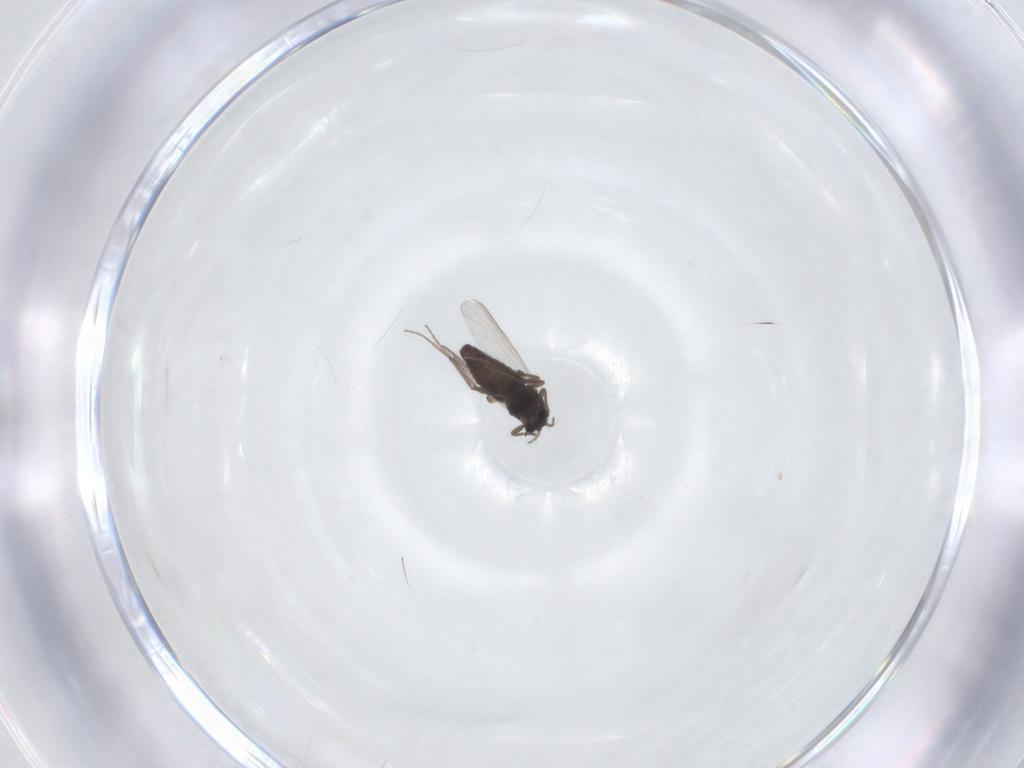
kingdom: Animalia
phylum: Arthropoda
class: Insecta
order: Diptera
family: Chironomidae
